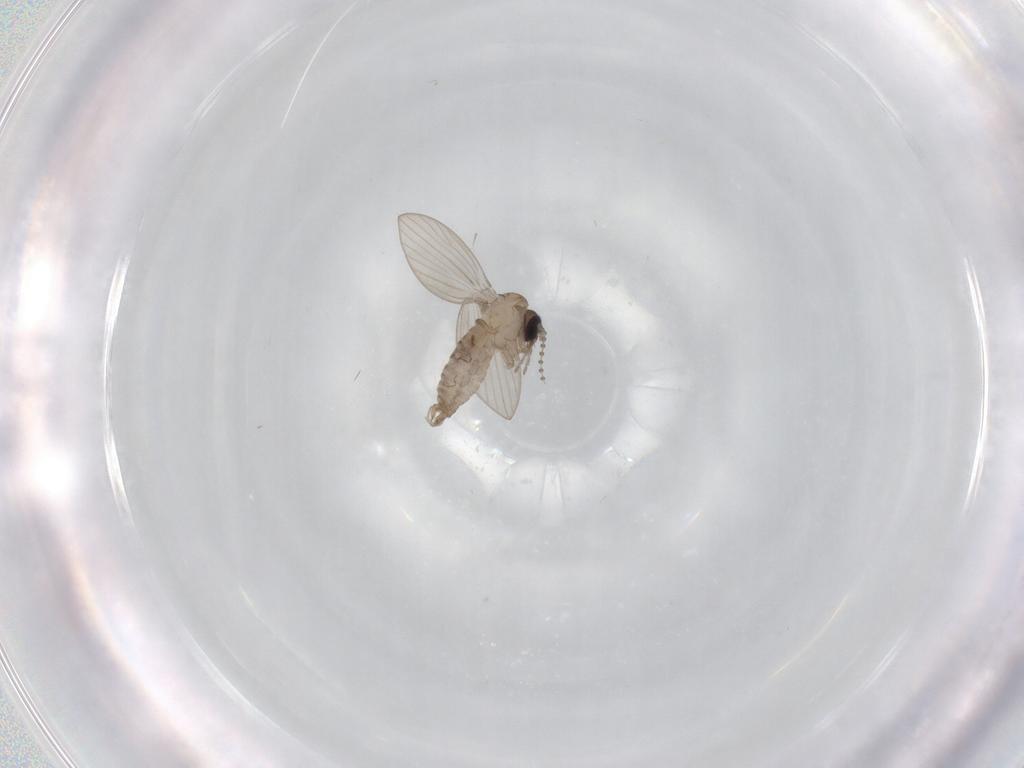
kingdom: Animalia
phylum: Arthropoda
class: Insecta
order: Diptera
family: Psychodidae
